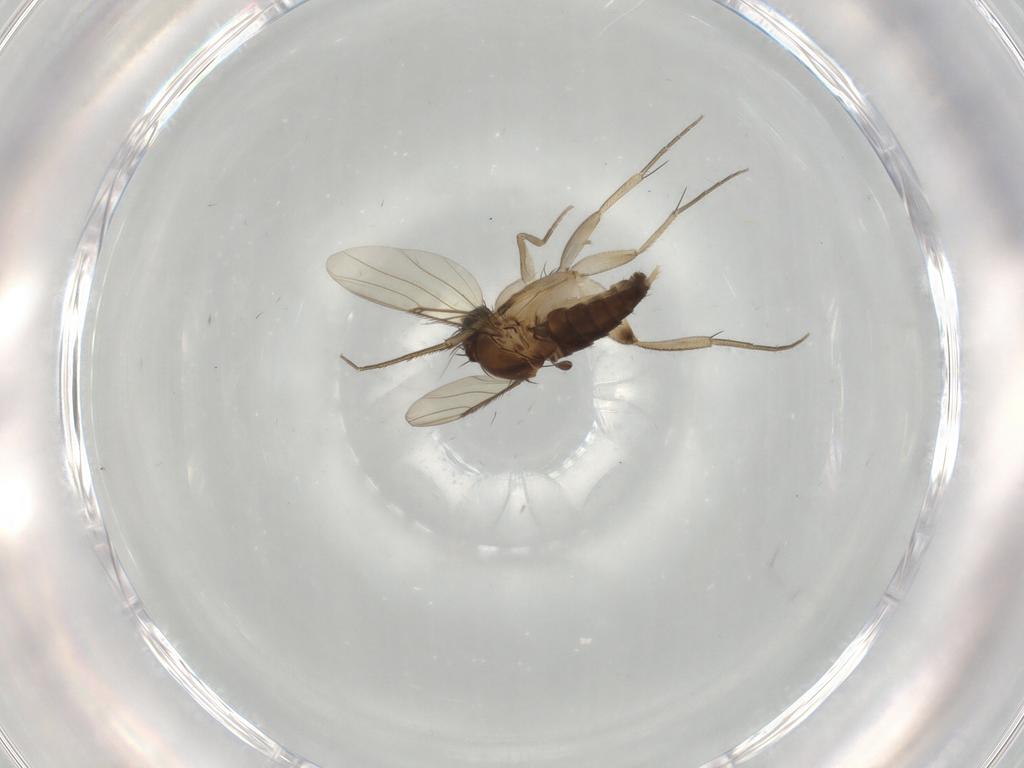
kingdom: Animalia
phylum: Arthropoda
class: Insecta
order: Diptera
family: Phoridae
